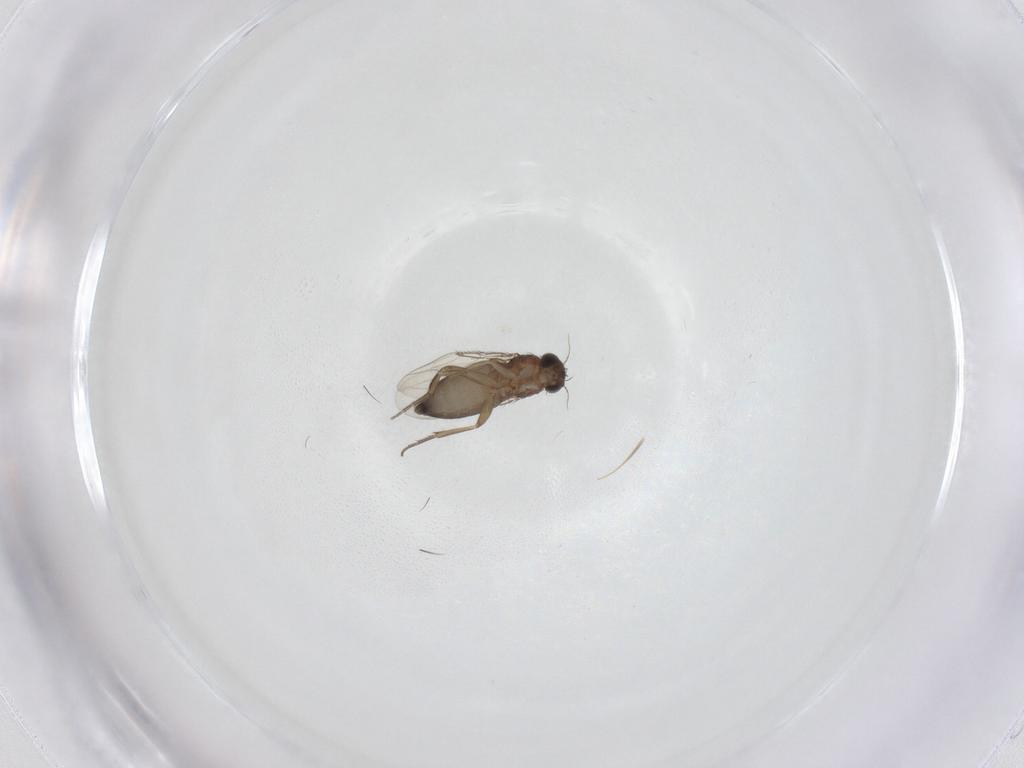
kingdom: Animalia
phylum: Arthropoda
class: Insecta
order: Diptera
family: Phoridae
